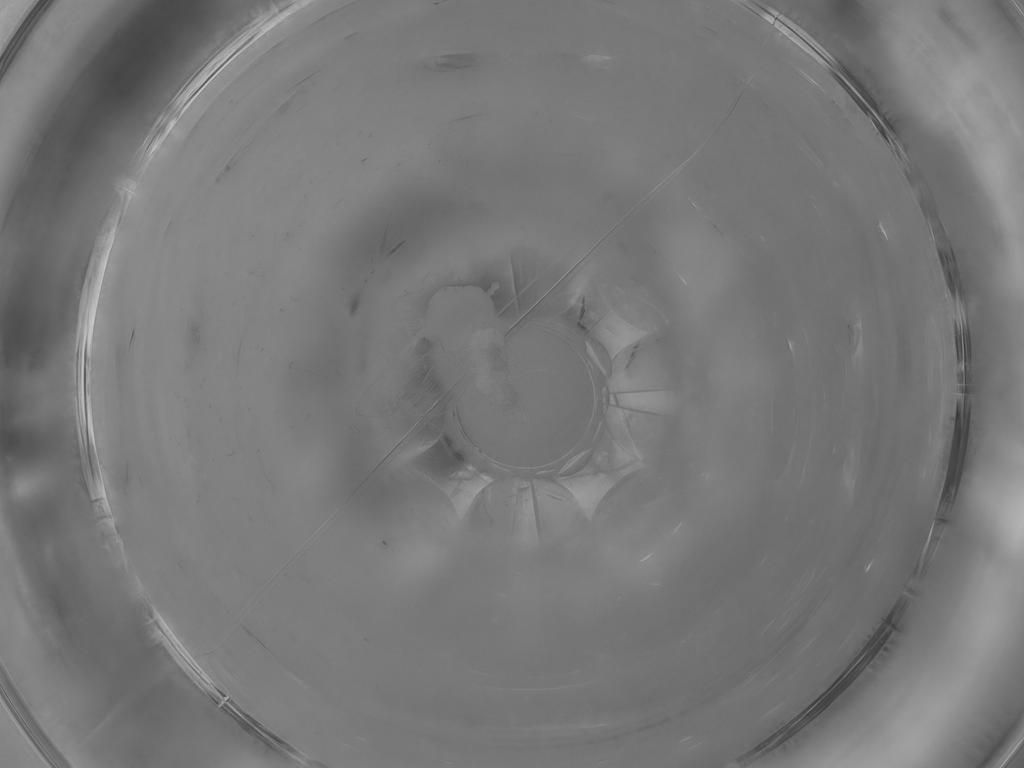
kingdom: Animalia
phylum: Arthropoda
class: Insecta
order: Diptera
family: Psychodidae
